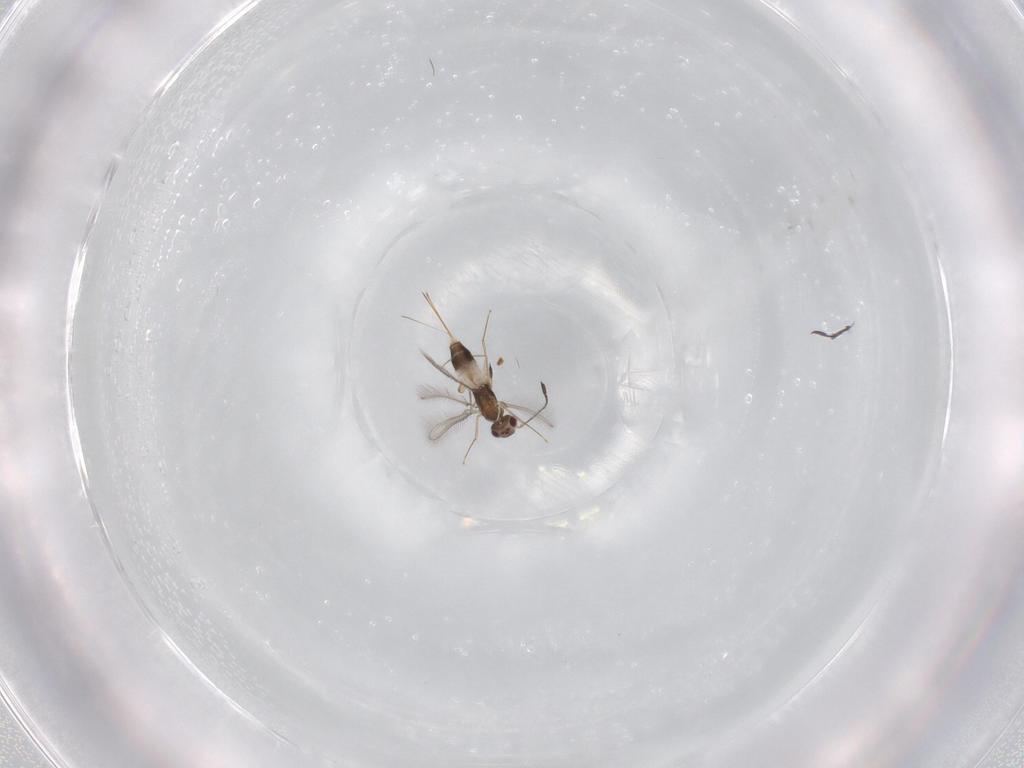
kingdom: Animalia
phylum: Arthropoda
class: Insecta
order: Hymenoptera
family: Mymaridae
